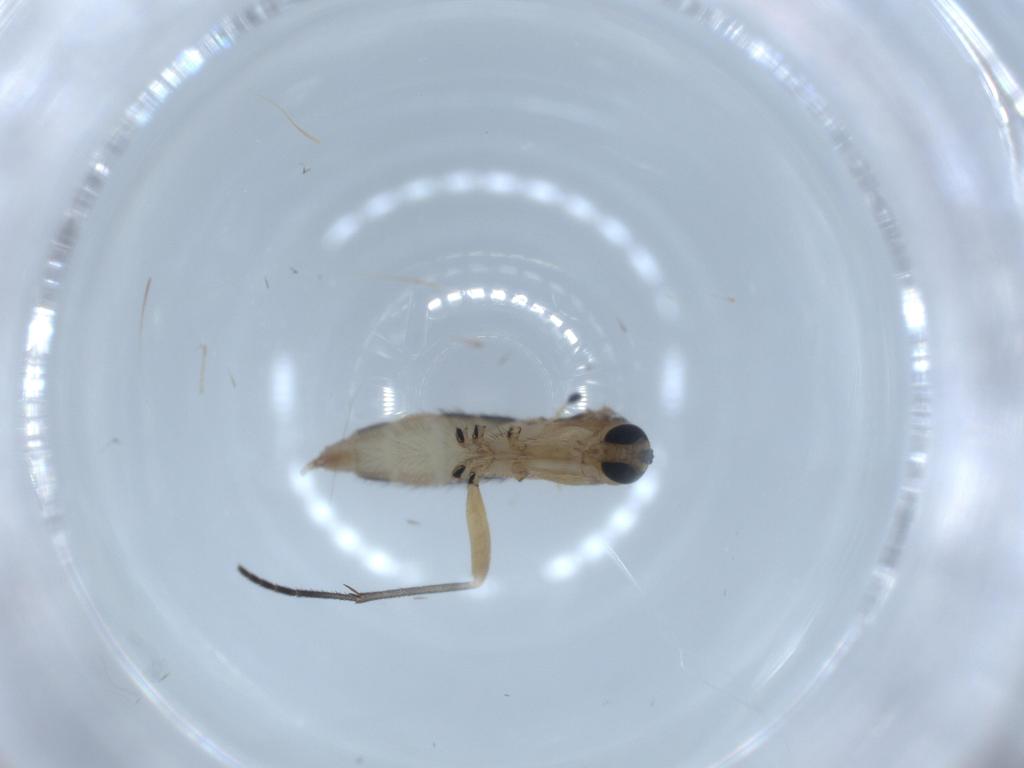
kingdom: Animalia
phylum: Arthropoda
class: Insecta
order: Diptera
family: Sciaridae
